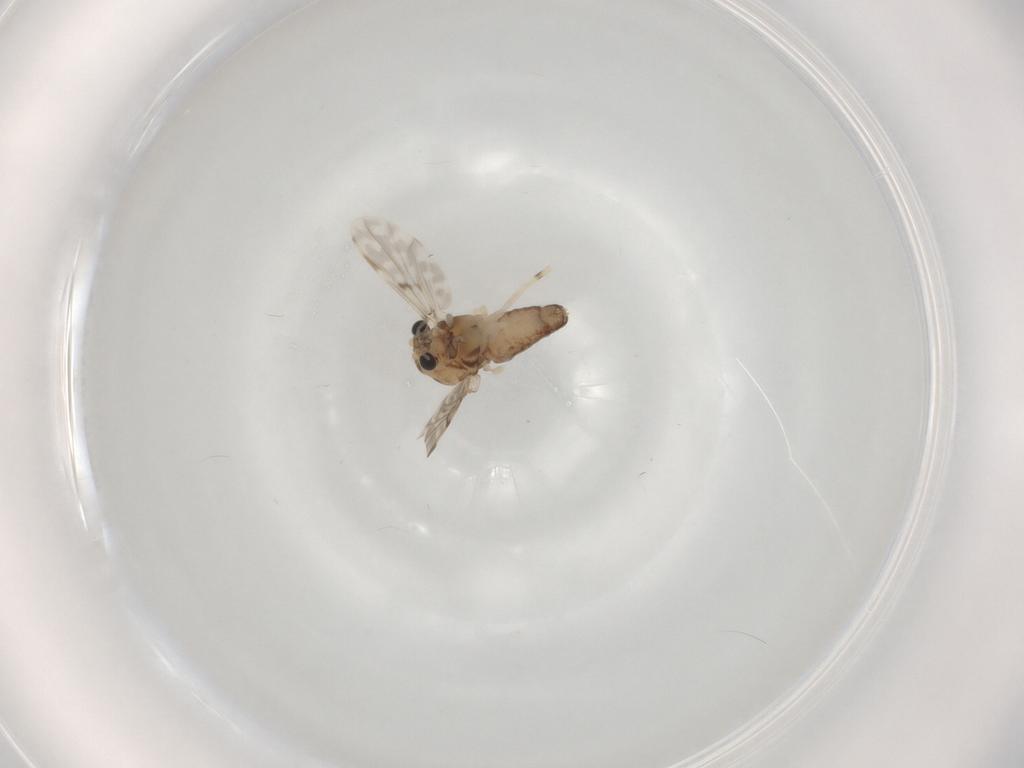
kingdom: Animalia
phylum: Arthropoda
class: Insecta
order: Diptera
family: Chironomidae
